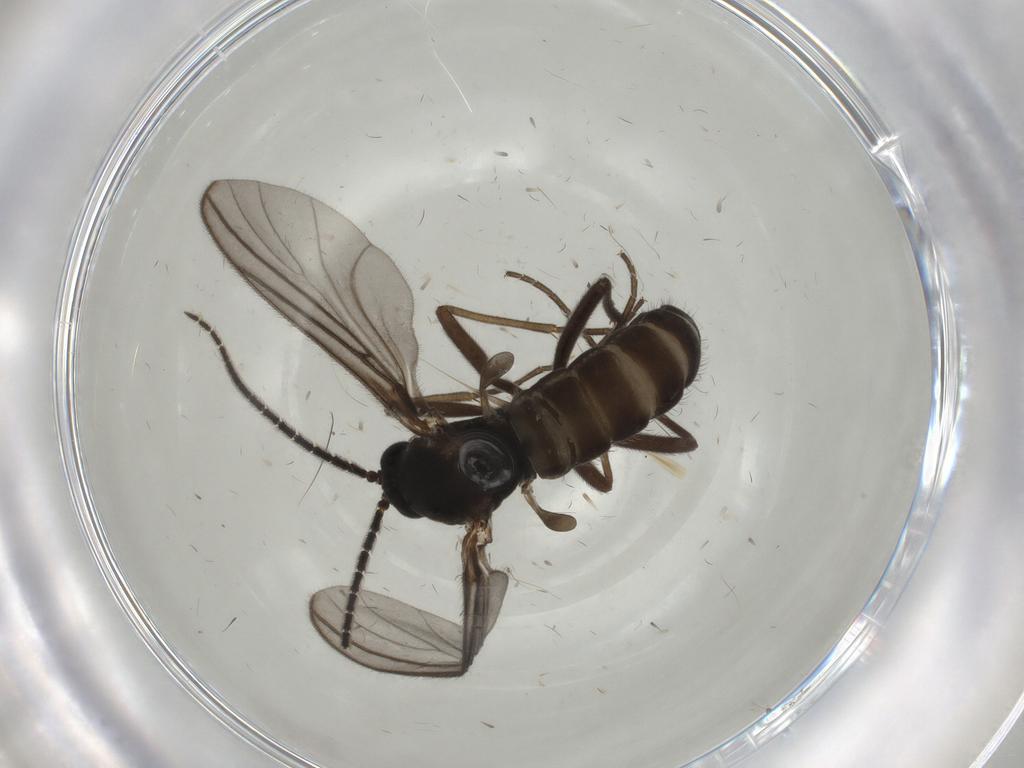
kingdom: Animalia
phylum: Arthropoda
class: Insecta
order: Diptera
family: Sciaridae
